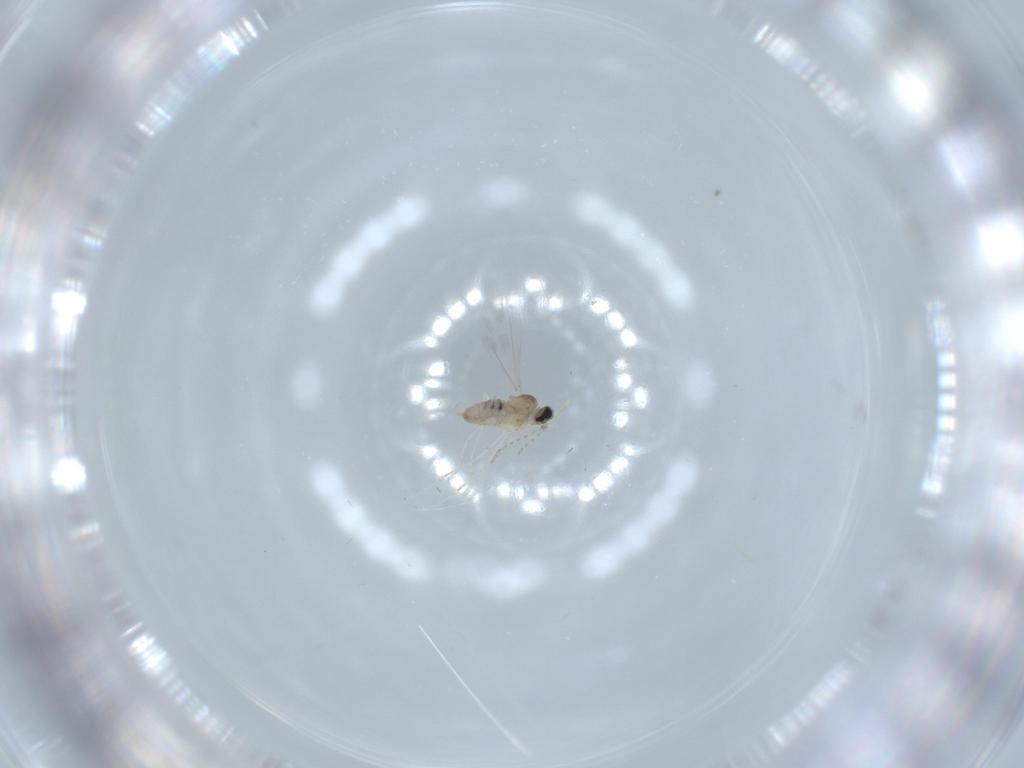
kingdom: Animalia
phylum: Arthropoda
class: Insecta
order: Diptera
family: Cecidomyiidae
